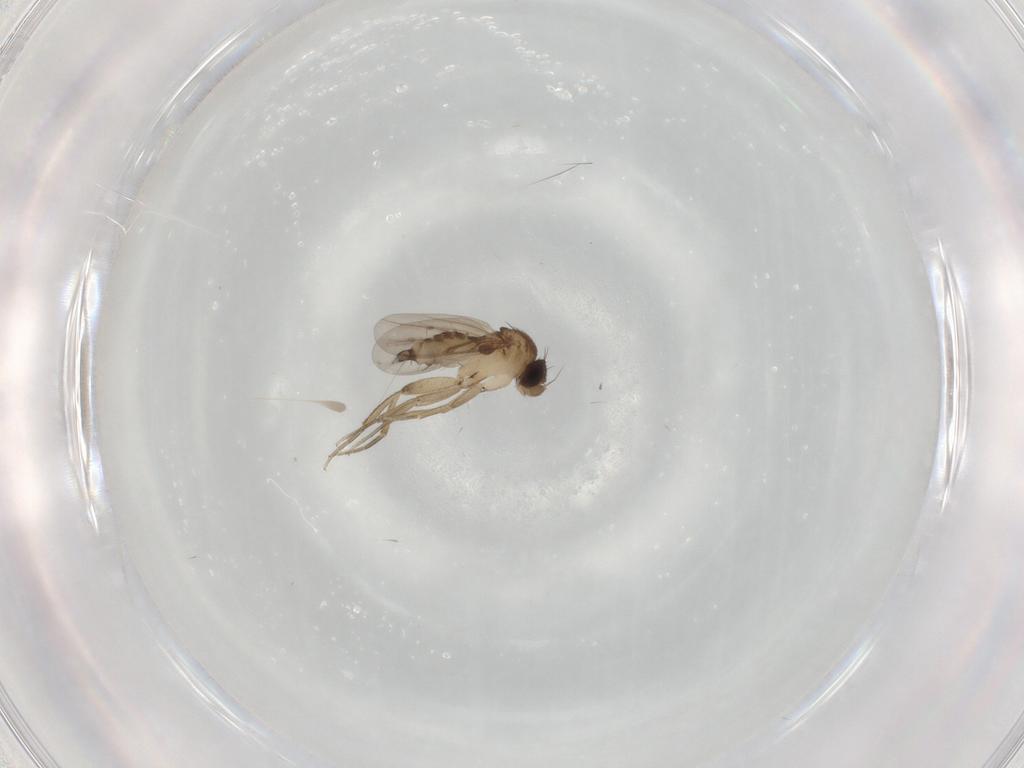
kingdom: Animalia
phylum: Arthropoda
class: Insecta
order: Diptera
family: Phoridae
